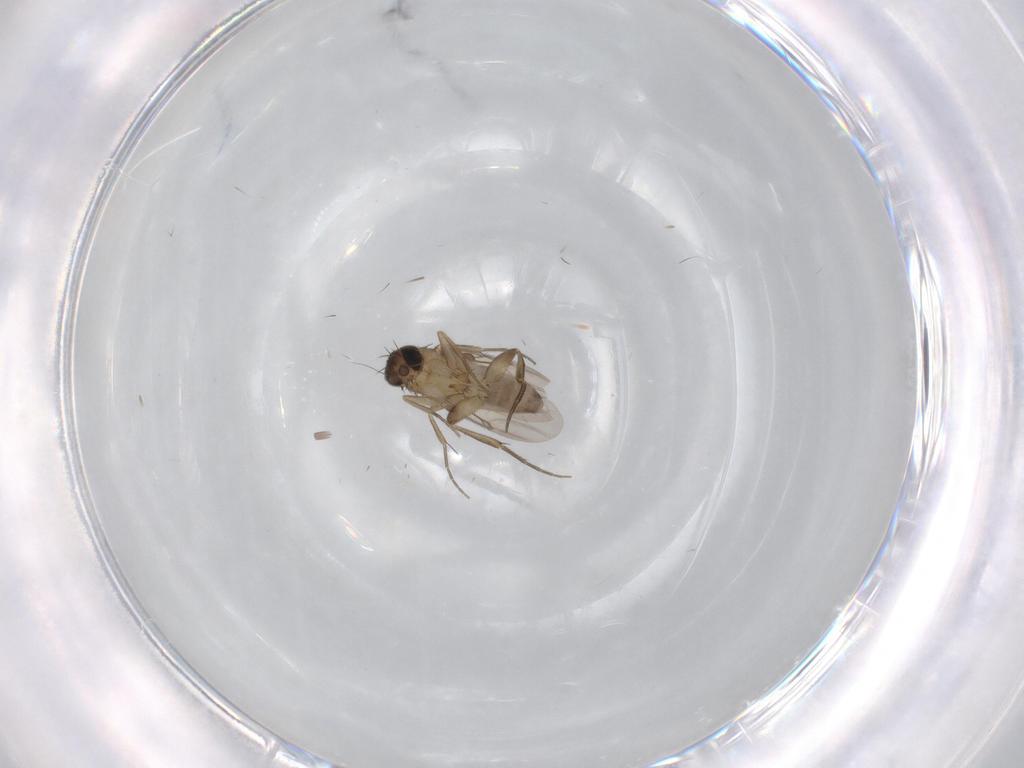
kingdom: Animalia
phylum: Arthropoda
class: Insecta
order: Diptera
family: Phoridae
